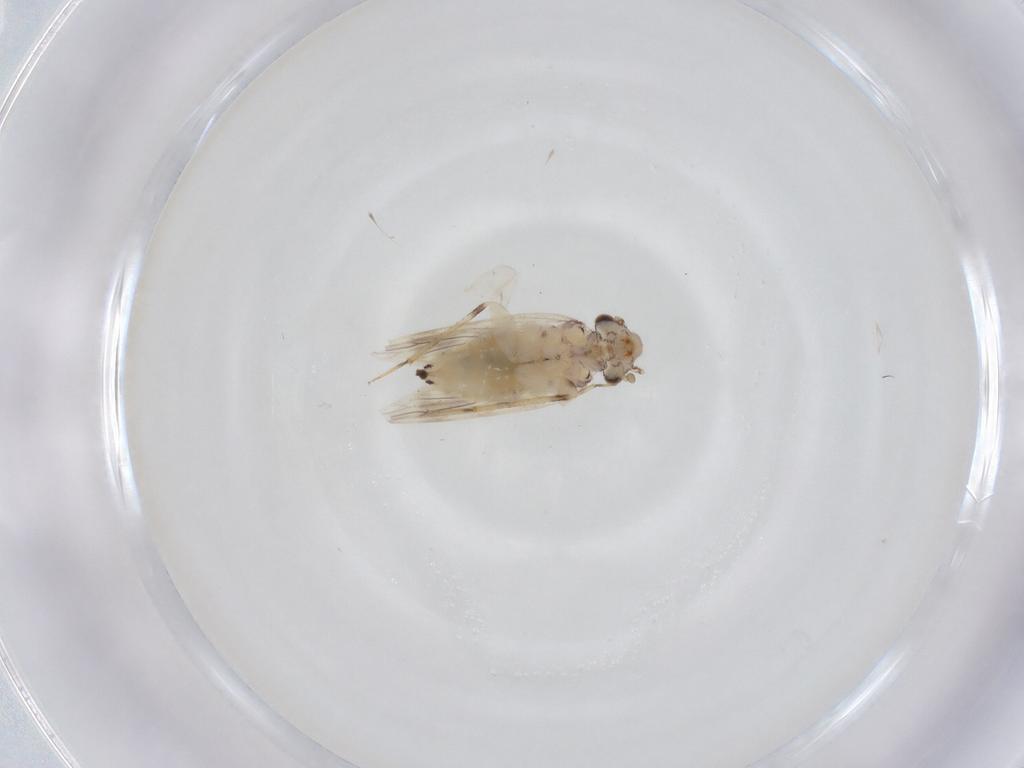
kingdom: Animalia
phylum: Arthropoda
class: Insecta
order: Psocodea
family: Lepidopsocidae
